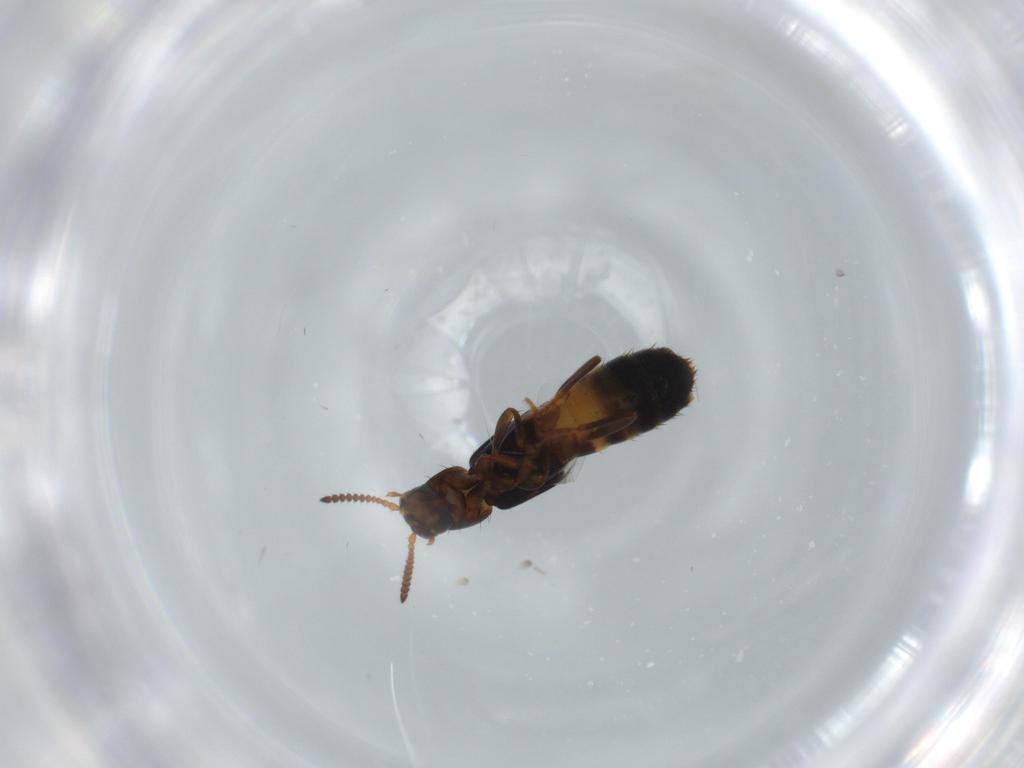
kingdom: Animalia
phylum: Arthropoda
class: Insecta
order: Coleoptera
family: Staphylinidae
